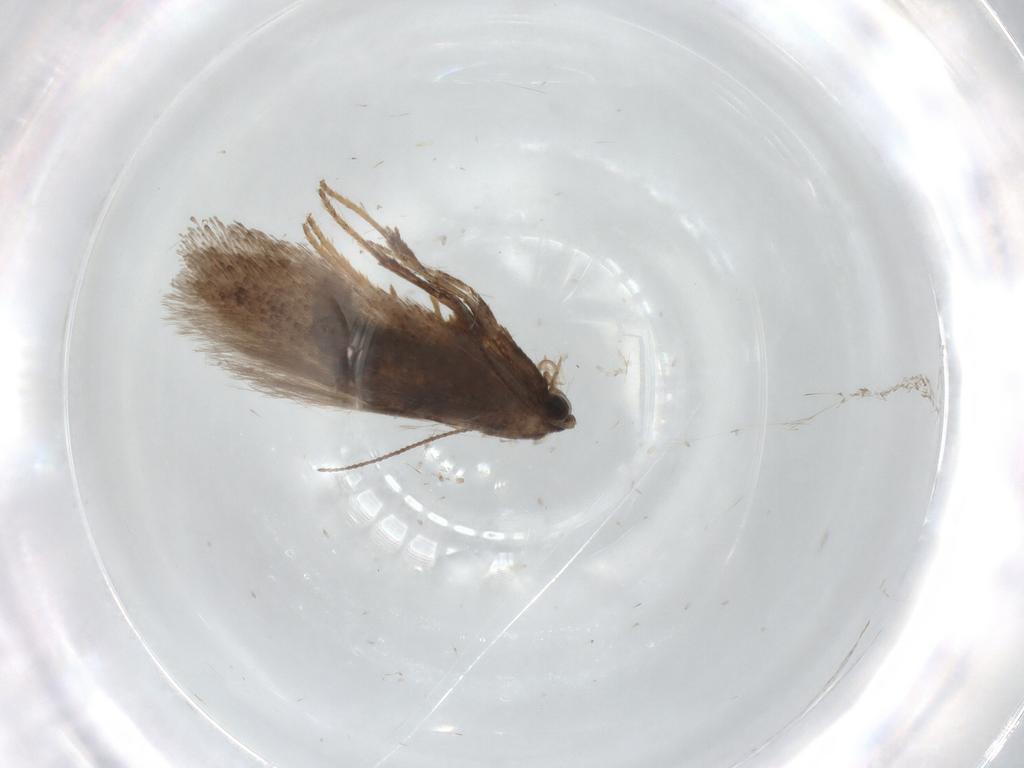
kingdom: Animalia
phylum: Arthropoda
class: Insecta
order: Lepidoptera
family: Nepticulidae
